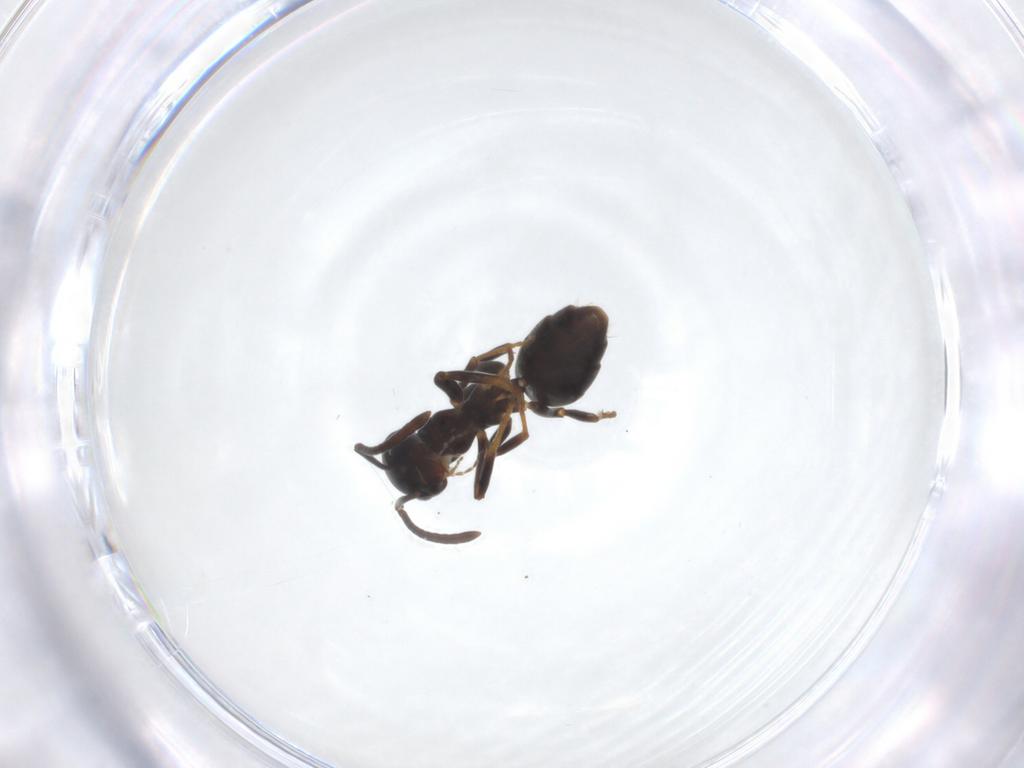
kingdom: Animalia
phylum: Arthropoda
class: Insecta
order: Hymenoptera
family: Formicidae
